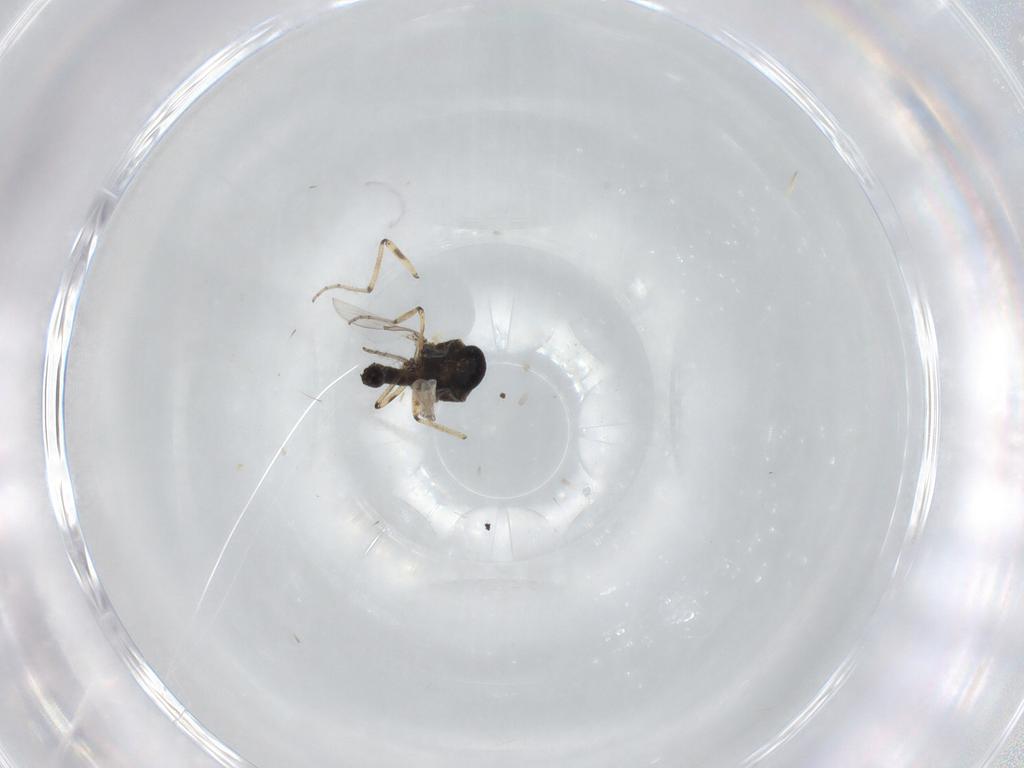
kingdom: Animalia
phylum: Arthropoda
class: Insecta
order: Diptera
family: Ceratopogonidae
